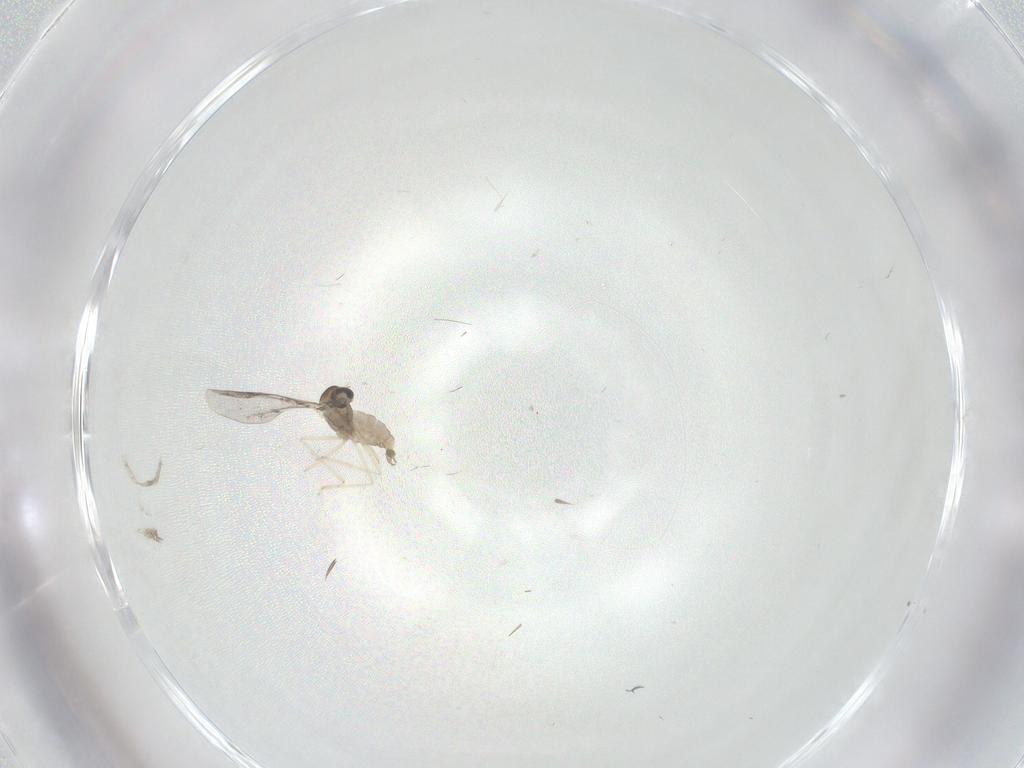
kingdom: Animalia
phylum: Arthropoda
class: Insecta
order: Diptera
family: Cecidomyiidae
